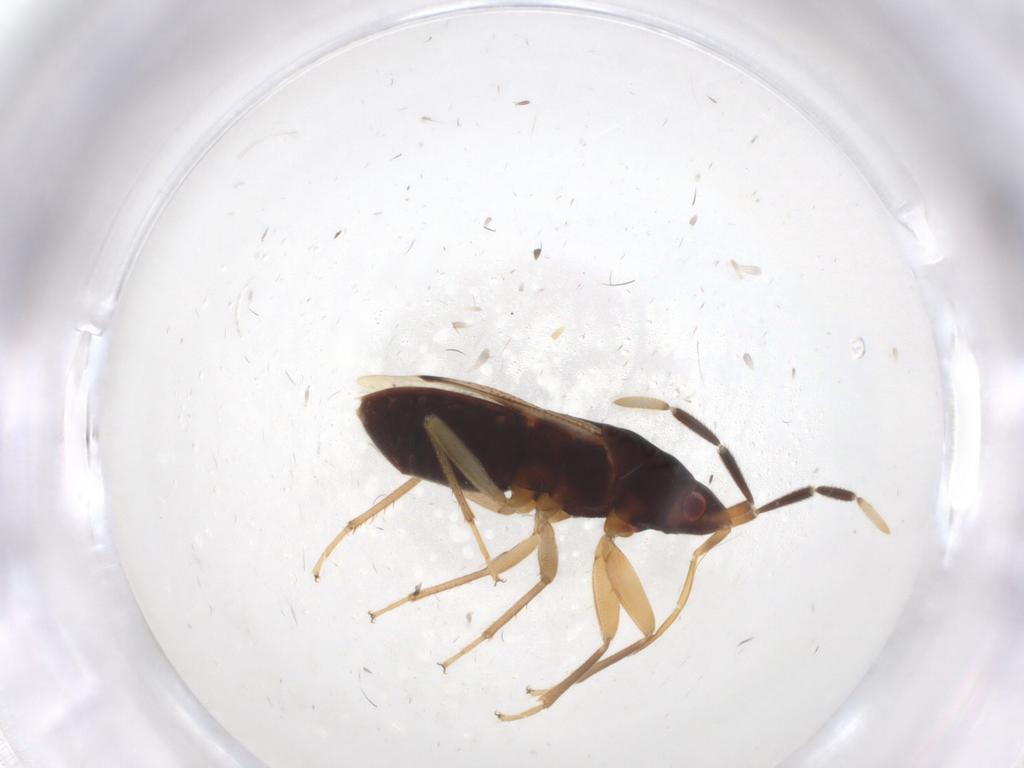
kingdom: Animalia
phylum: Arthropoda
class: Insecta
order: Hemiptera
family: Rhyparochromidae
